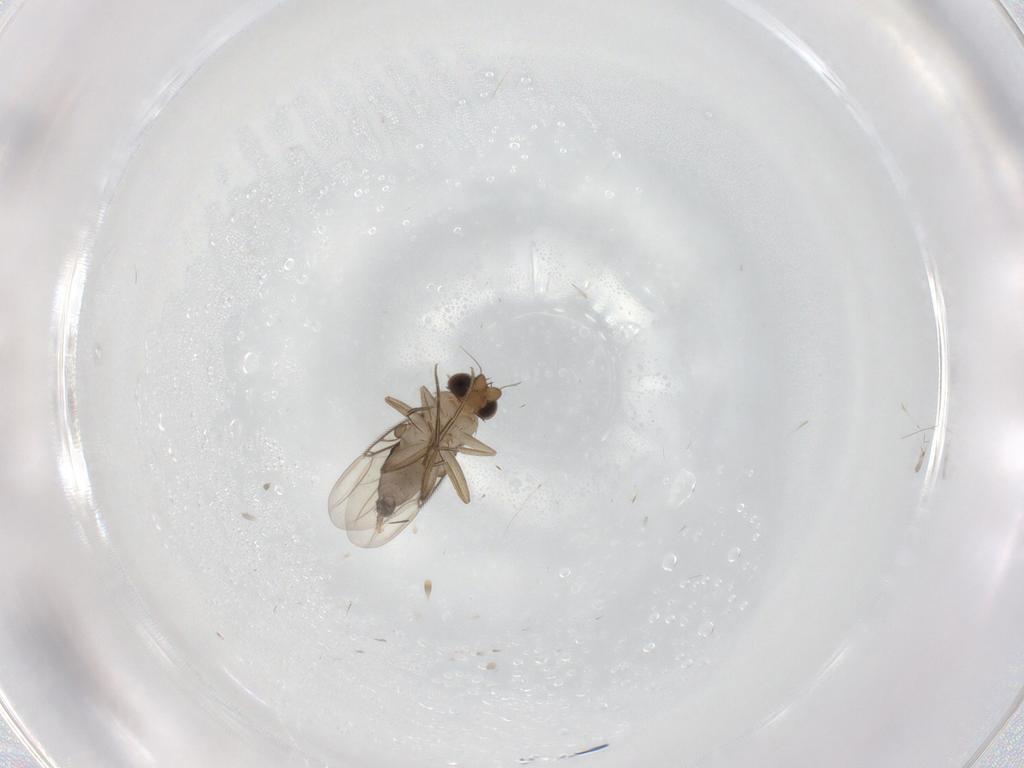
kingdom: Animalia
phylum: Arthropoda
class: Insecta
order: Diptera
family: Phoridae
